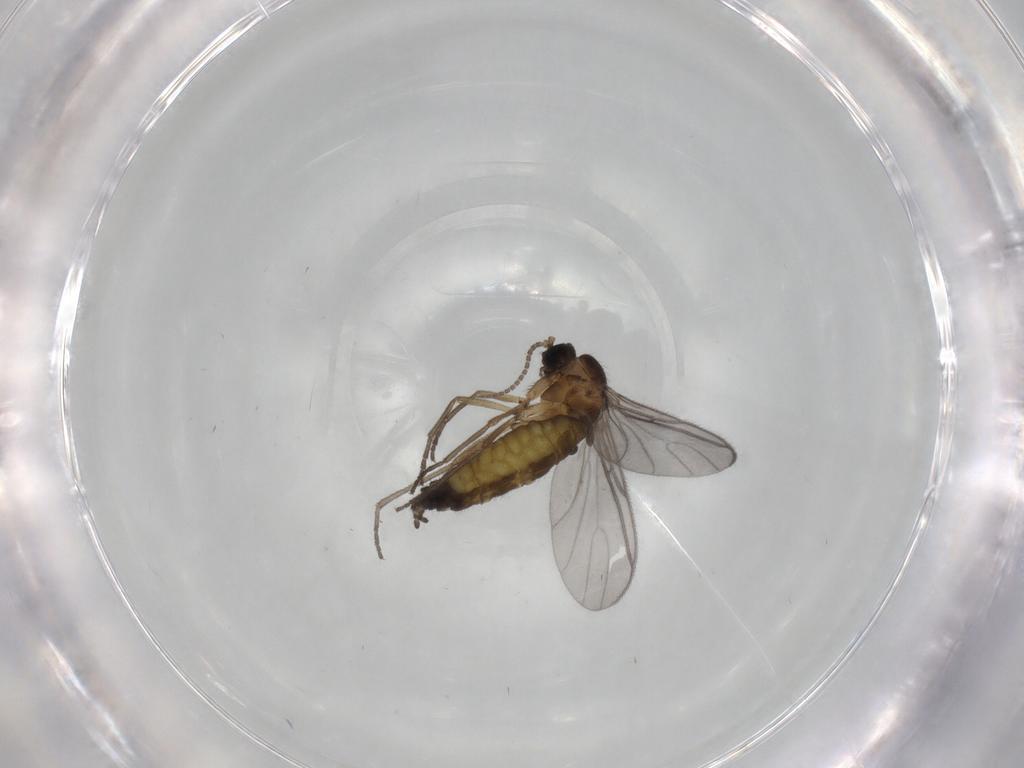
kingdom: Animalia
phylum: Arthropoda
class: Insecta
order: Diptera
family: Sciaridae
